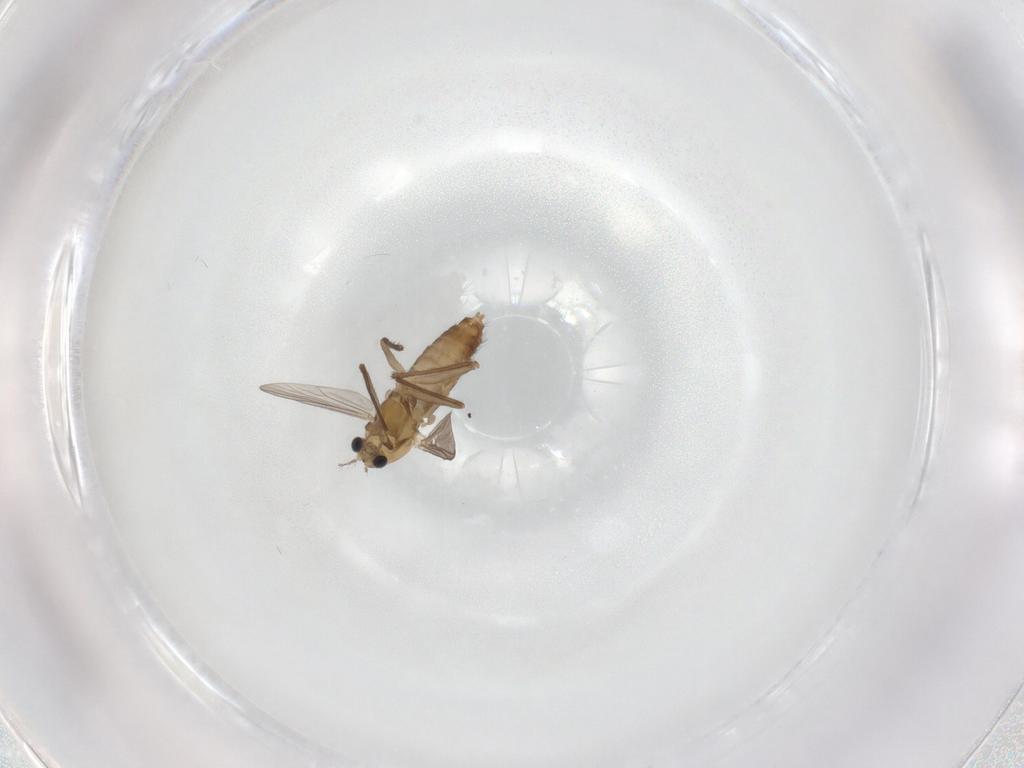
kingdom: Animalia
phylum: Arthropoda
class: Insecta
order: Diptera
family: Chironomidae
